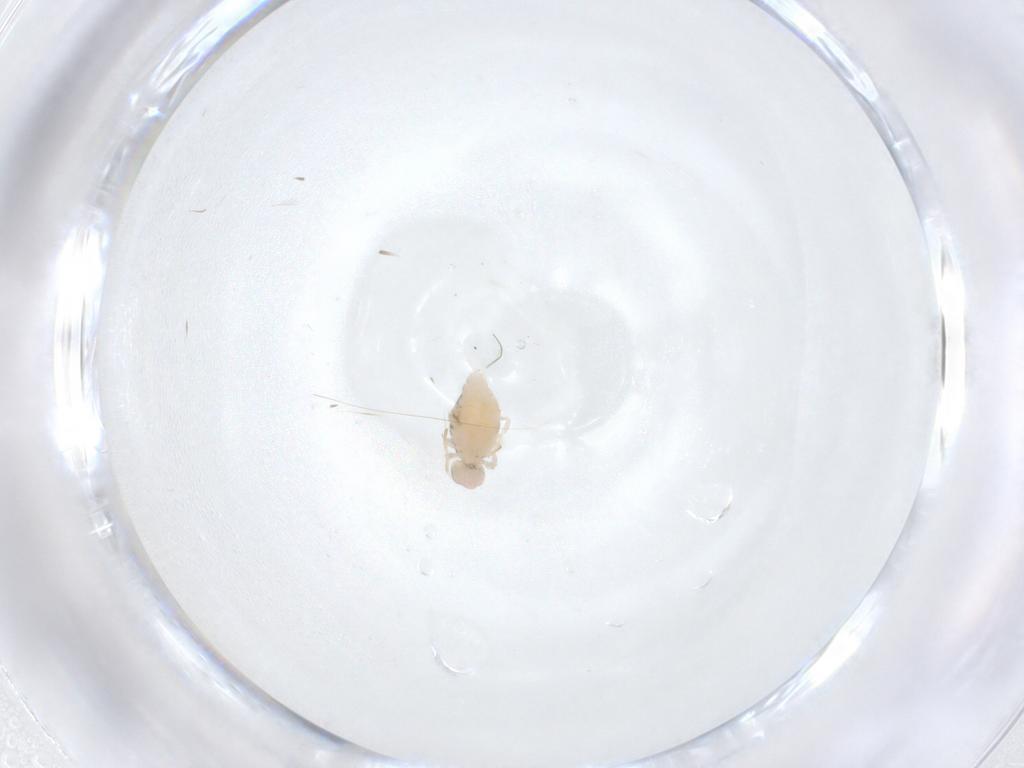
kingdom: Animalia
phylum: Arthropoda
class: Collembola
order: Symphypleona
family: Katiannidae
